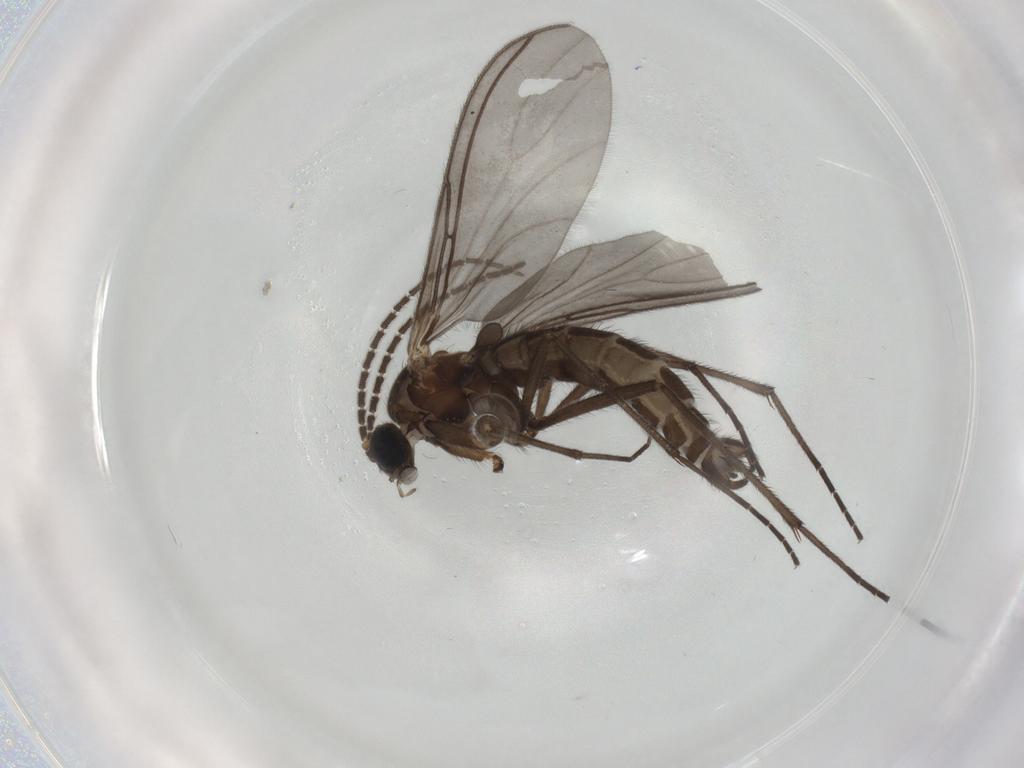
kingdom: Animalia
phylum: Arthropoda
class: Insecta
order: Diptera
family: Sciaridae
